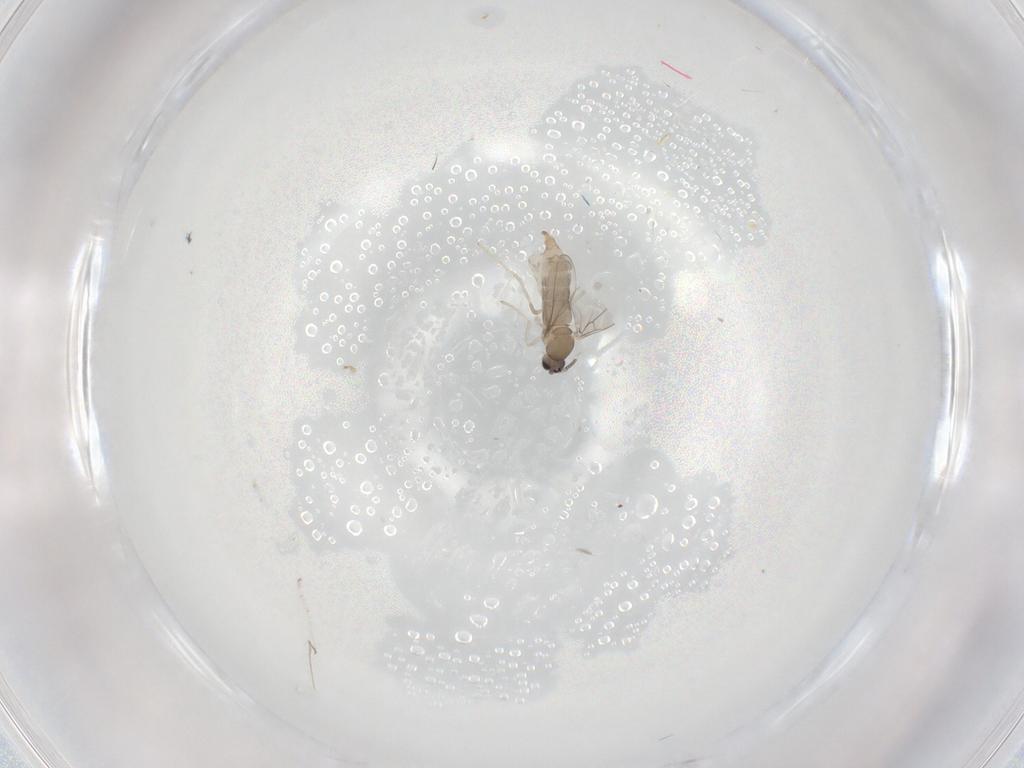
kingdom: Animalia
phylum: Arthropoda
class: Insecta
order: Diptera
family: Cecidomyiidae
